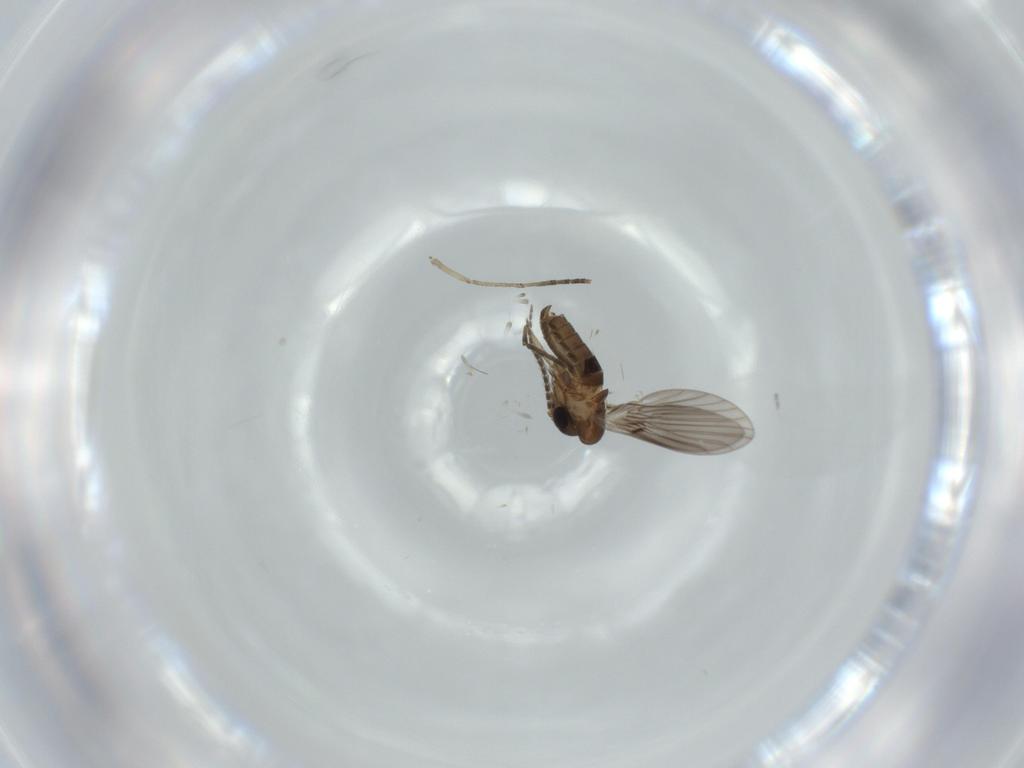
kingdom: Animalia
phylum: Arthropoda
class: Insecta
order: Diptera
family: Psychodidae
